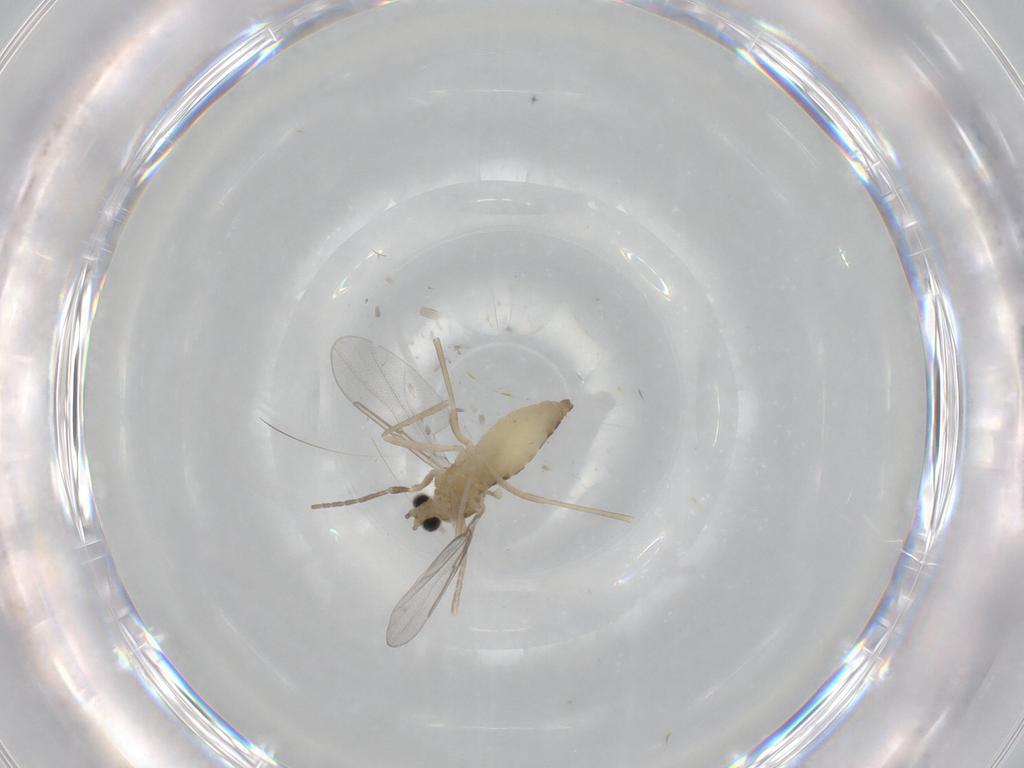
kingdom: Animalia
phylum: Arthropoda
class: Insecta
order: Diptera
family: Cecidomyiidae
